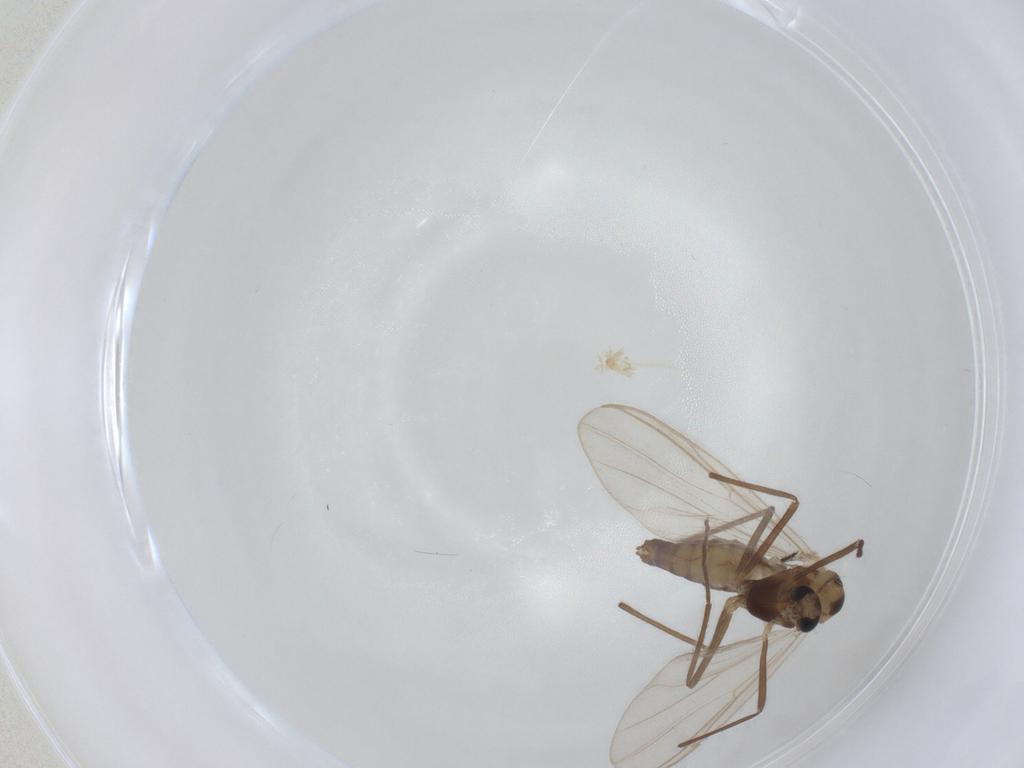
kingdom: Animalia
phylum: Arthropoda
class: Insecta
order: Diptera
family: Chironomidae
